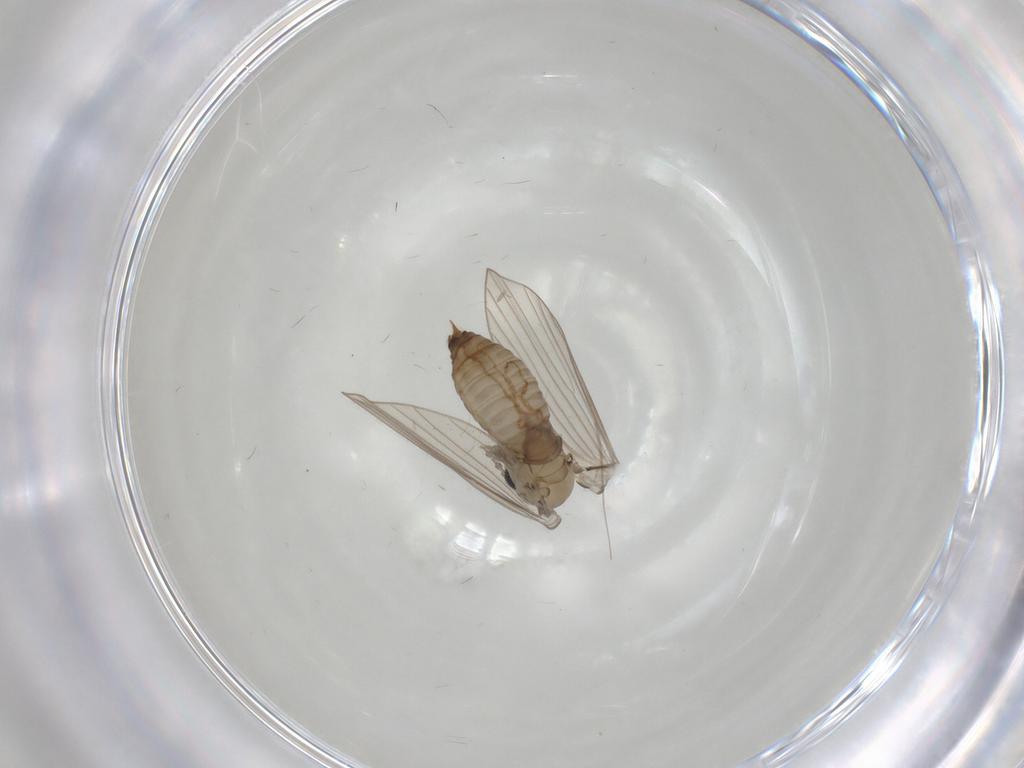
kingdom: Animalia
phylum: Arthropoda
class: Insecta
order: Diptera
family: Psychodidae
